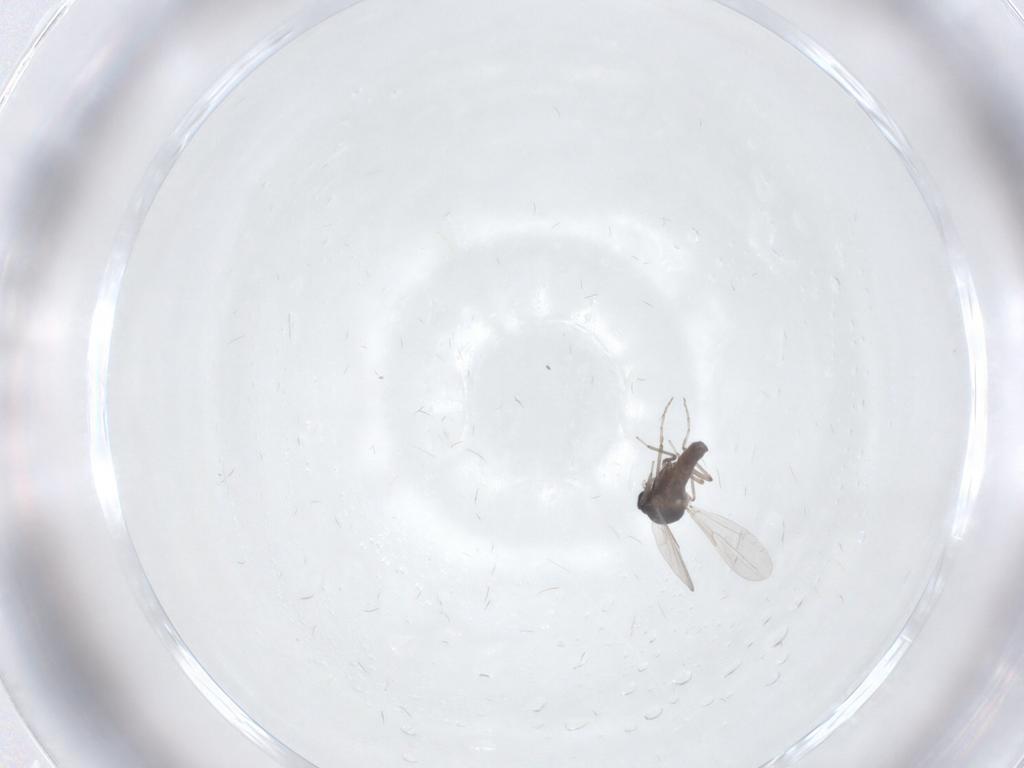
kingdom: Animalia
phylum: Arthropoda
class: Insecta
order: Diptera
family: Ceratopogonidae
